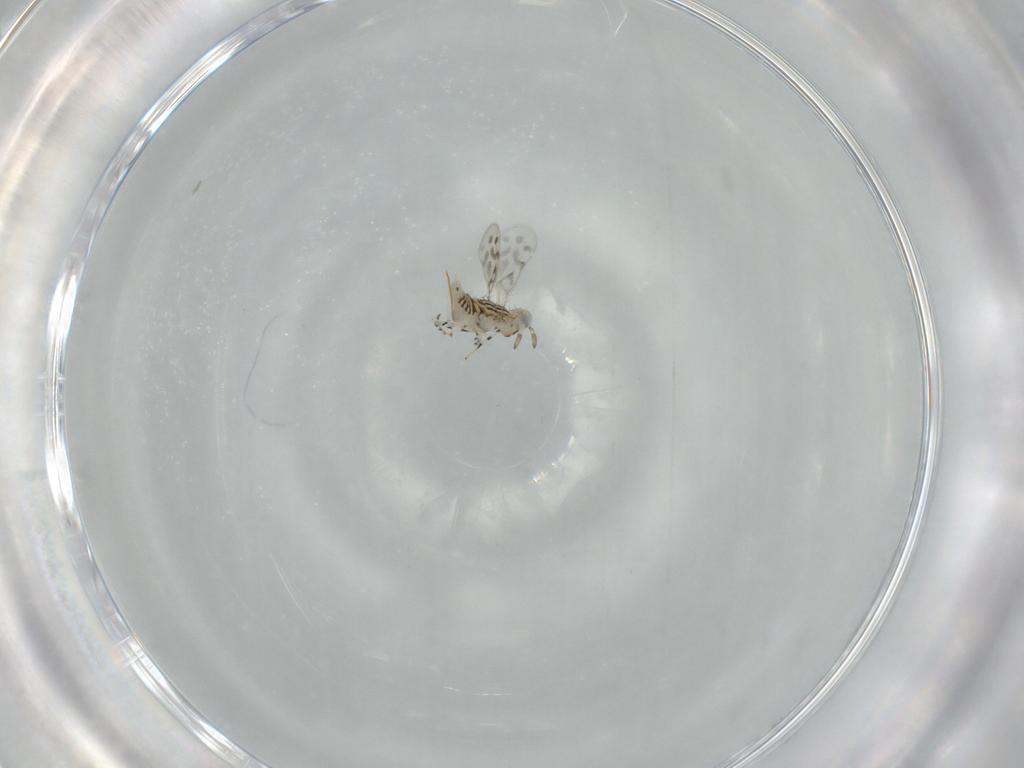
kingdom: Animalia
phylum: Arthropoda
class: Insecta
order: Hymenoptera
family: Aphelinidae
